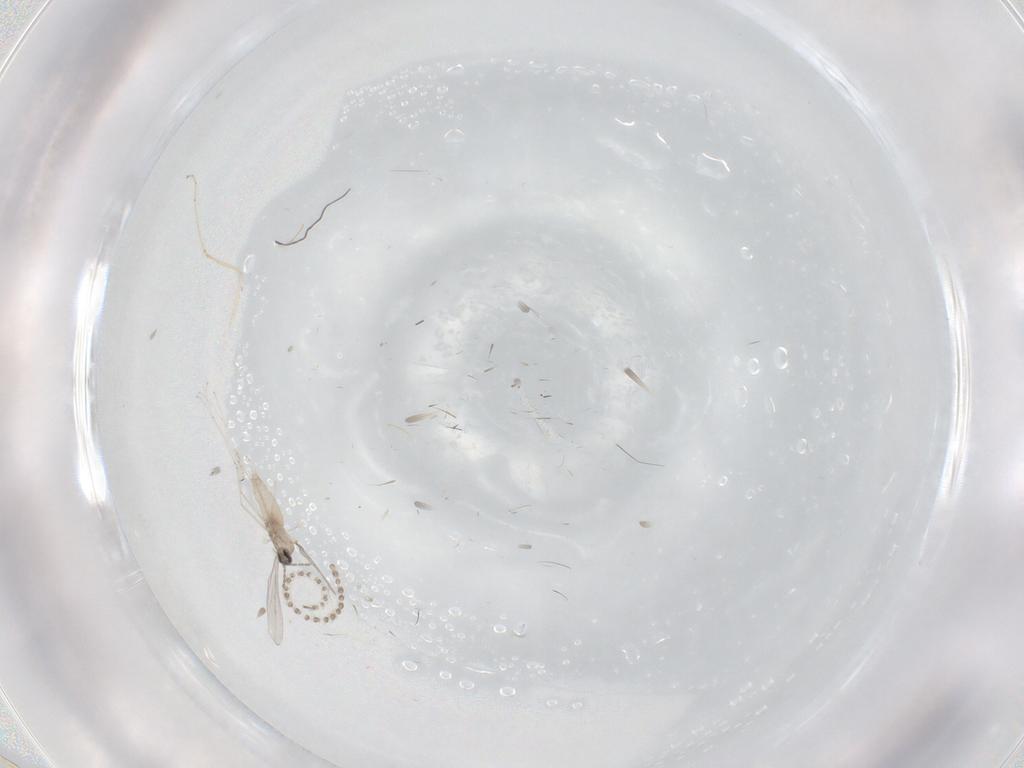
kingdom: Animalia
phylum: Arthropoda
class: Insecta
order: Diptera
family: Cecidomyiidae
